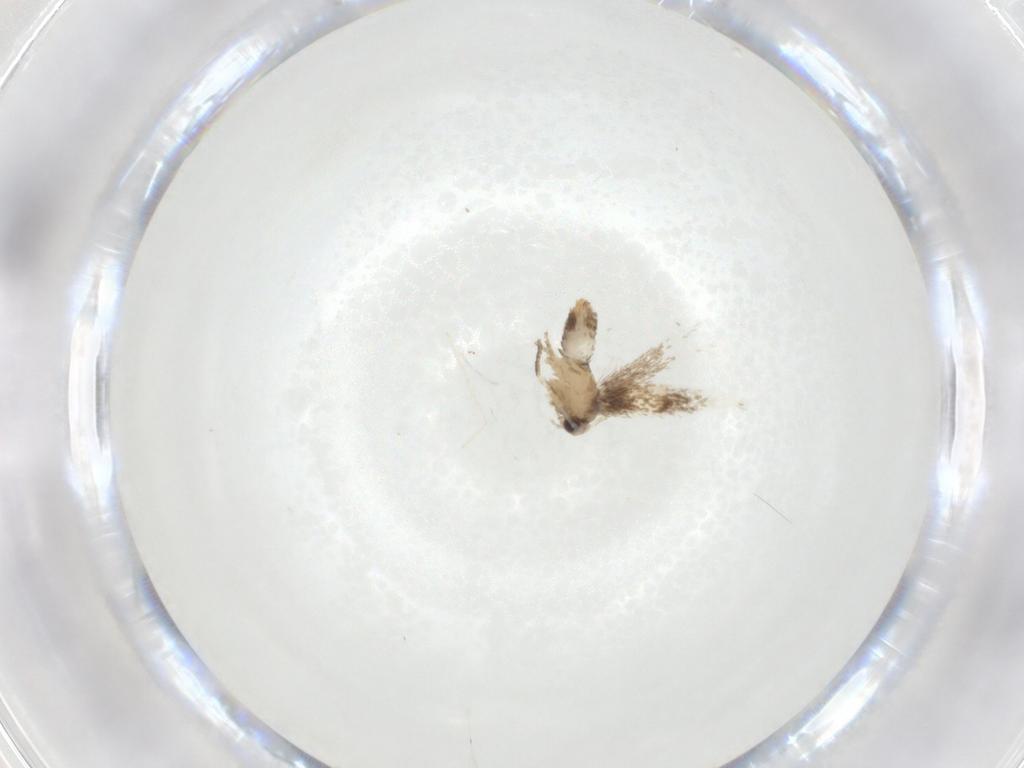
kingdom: Animalia
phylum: Arthropoda
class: Insecta
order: Lepidoptera
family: Nepticulidae
